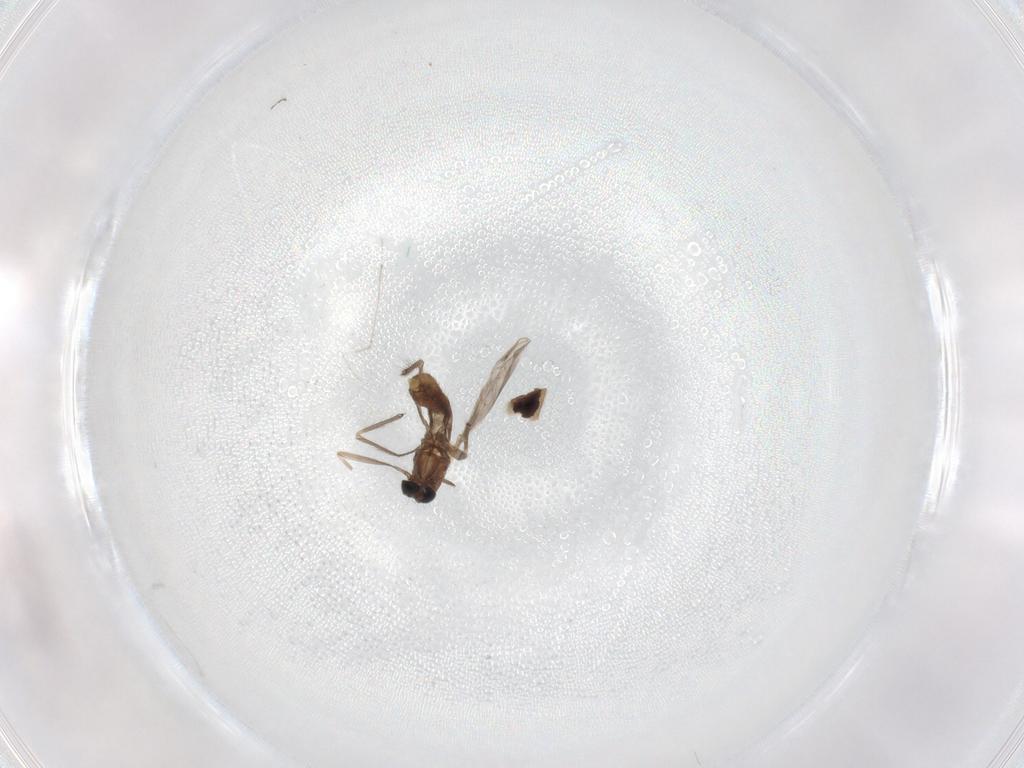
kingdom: Animalia
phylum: Arthropoda
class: Insecta
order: Diptera
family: Chironomidae
